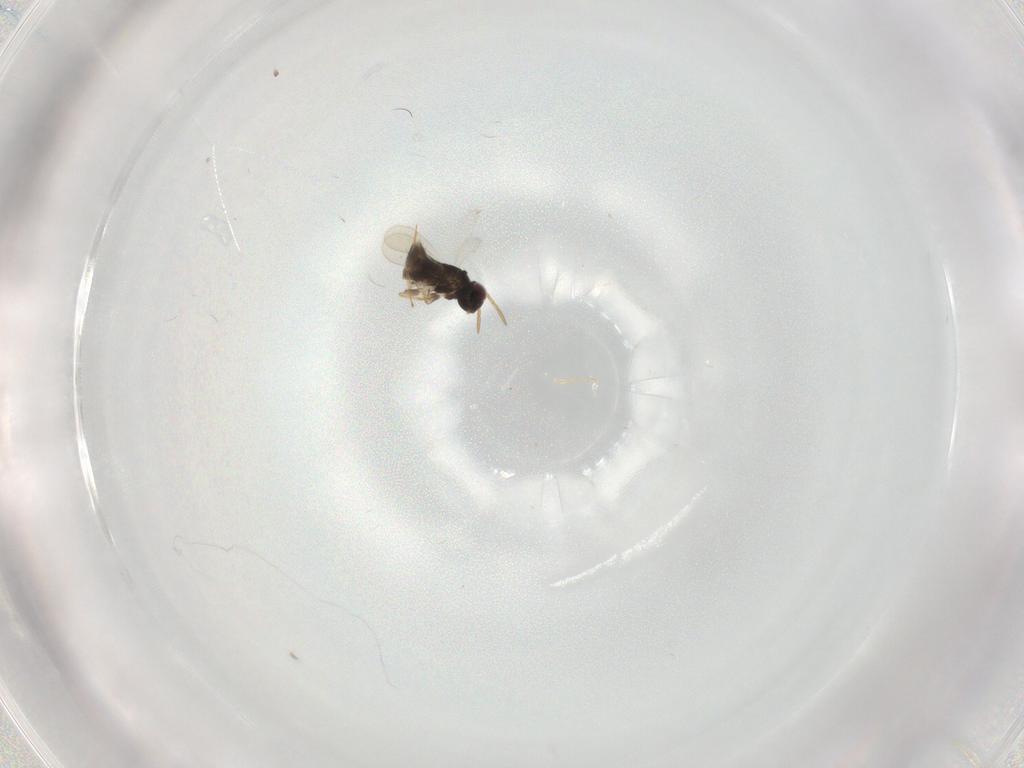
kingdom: Animalia
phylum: Arthropoda
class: Insecta
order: Hymenoptera
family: Aphelinidae
